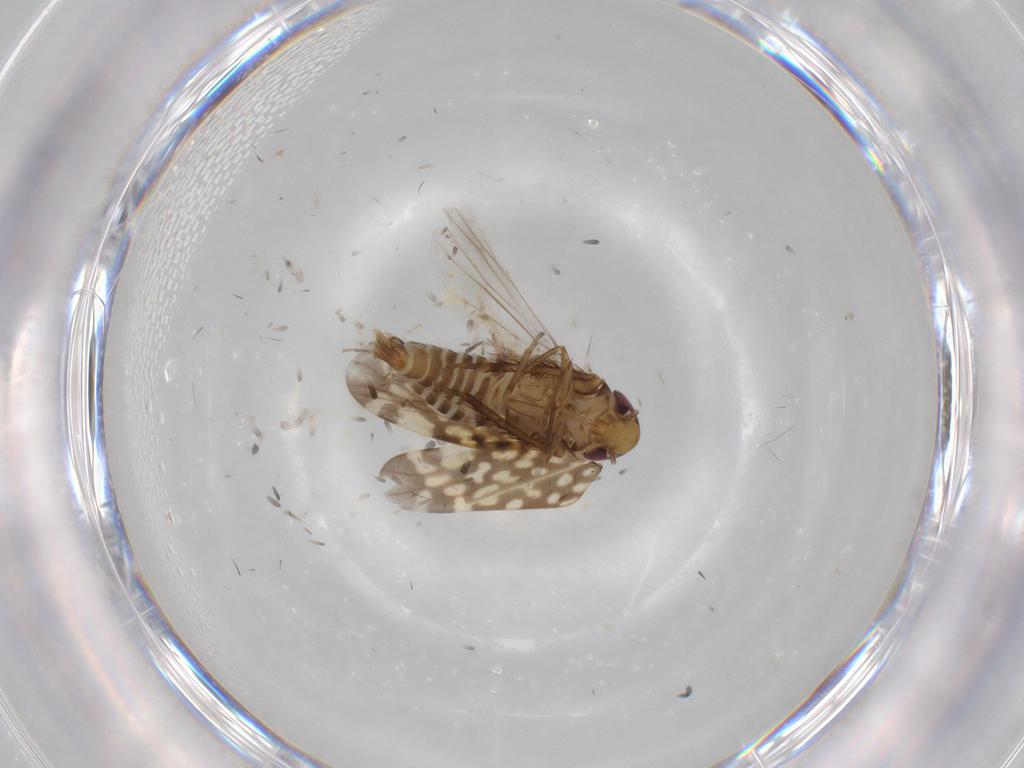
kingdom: Animalia
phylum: Arthropoda
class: Insecta
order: Hemiptera
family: Cicadellidae
